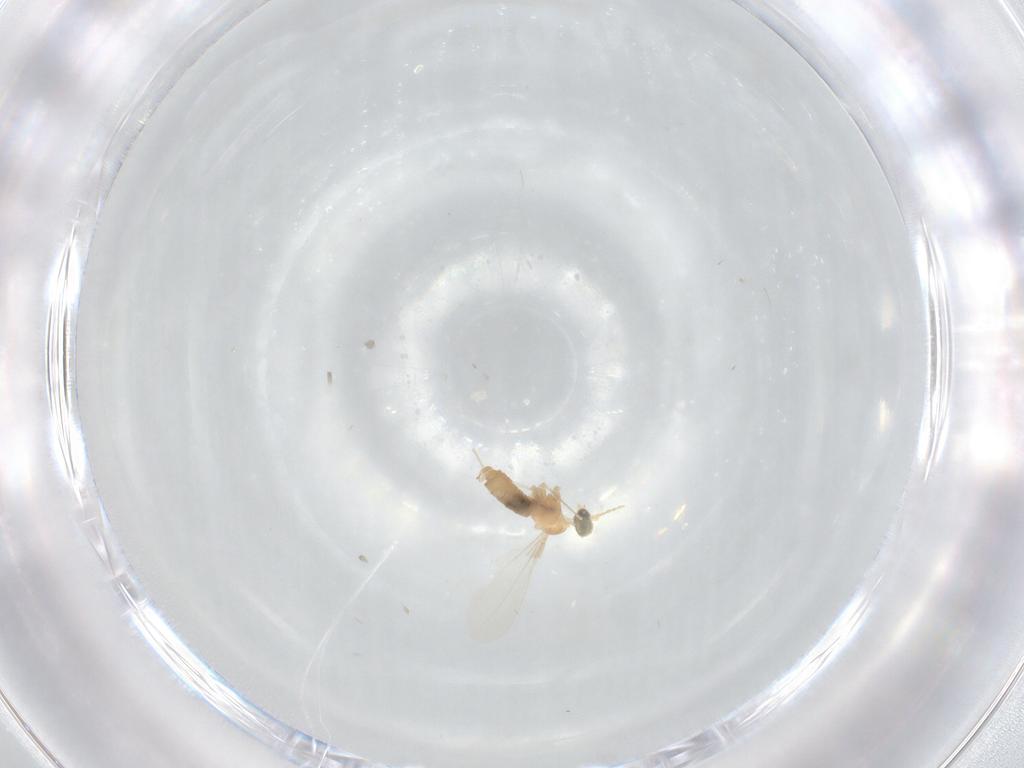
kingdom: Animalia
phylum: Arthropoda
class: Insecta
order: Diptera
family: Cecidomyiidae
